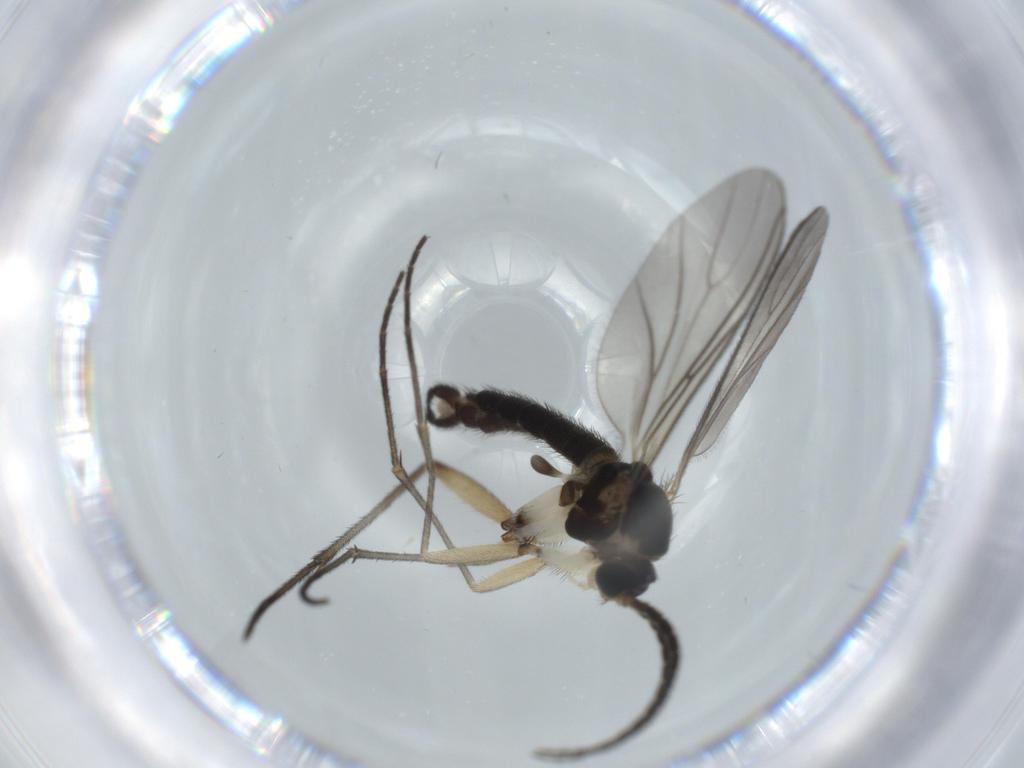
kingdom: Animalia
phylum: Arthropoda
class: Insecta
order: Diptera
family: Sciaridae
